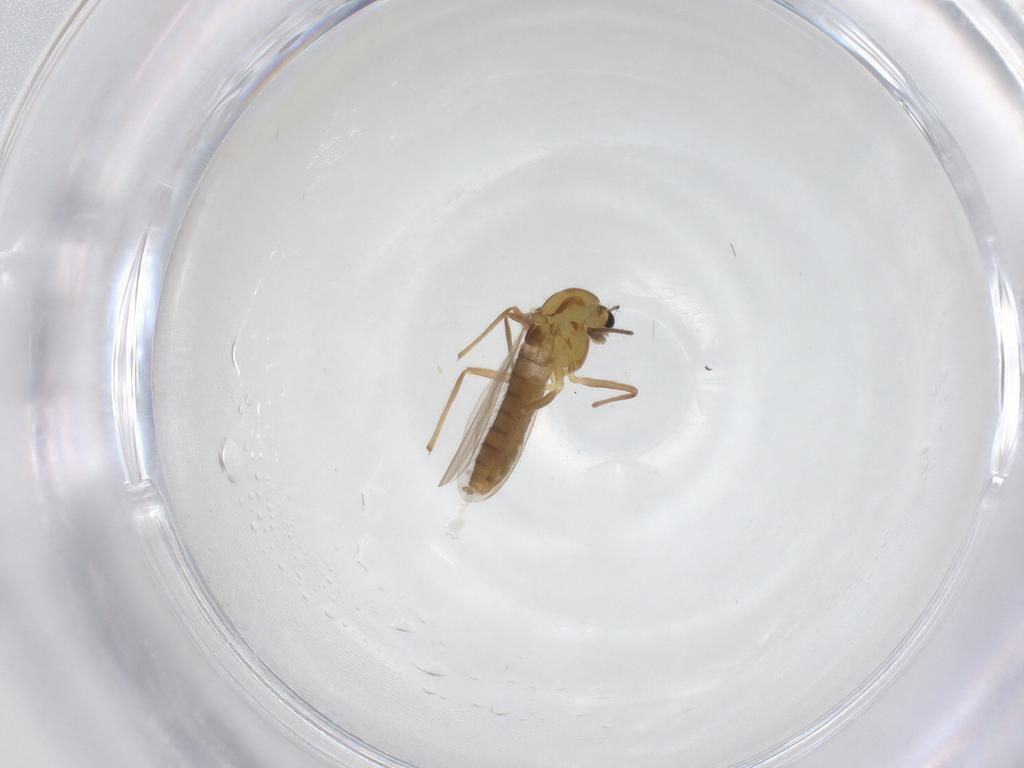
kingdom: Animalia
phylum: Arthropoda
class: Insecta
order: Diptera
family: Chironomidae
